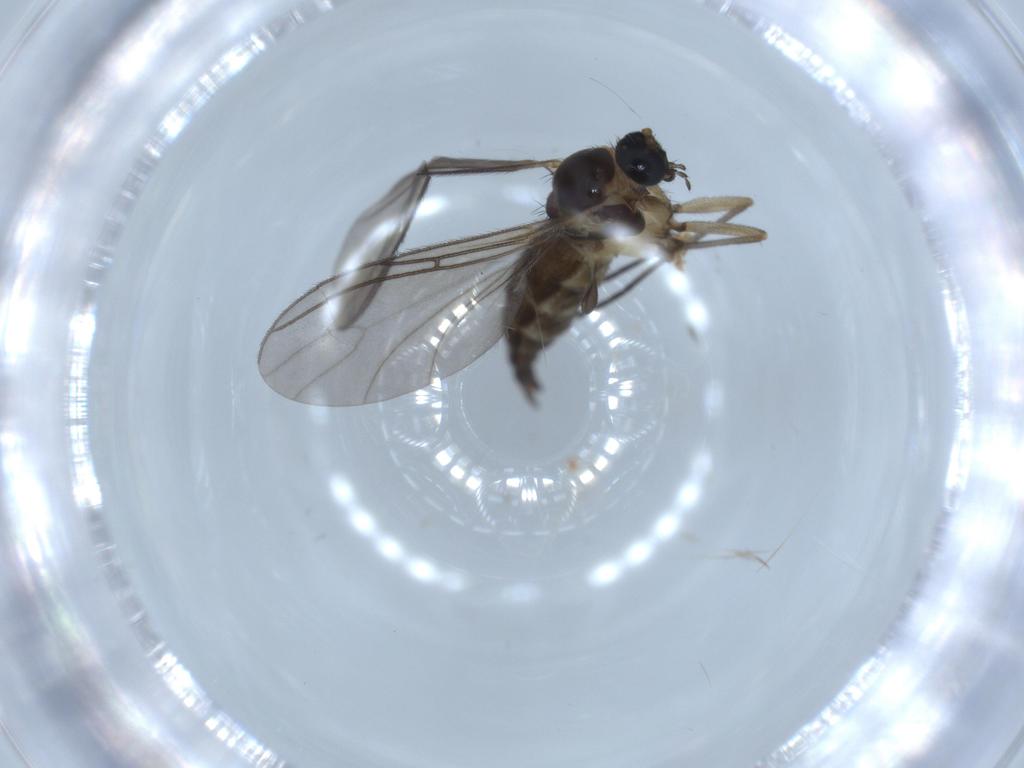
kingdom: Animalia
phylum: Arthropoda
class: Insecta
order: Diptera
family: Sciaridae
